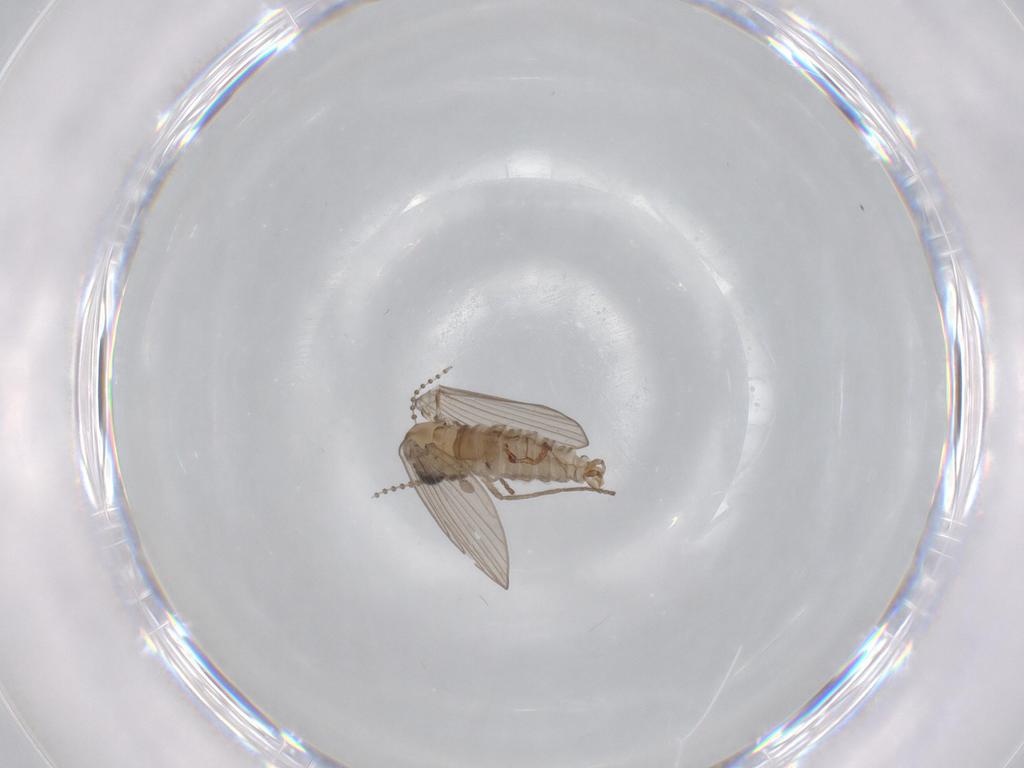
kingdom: Animalia
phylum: Arthropoda
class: Insecta
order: Diptera
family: Psychodidae
